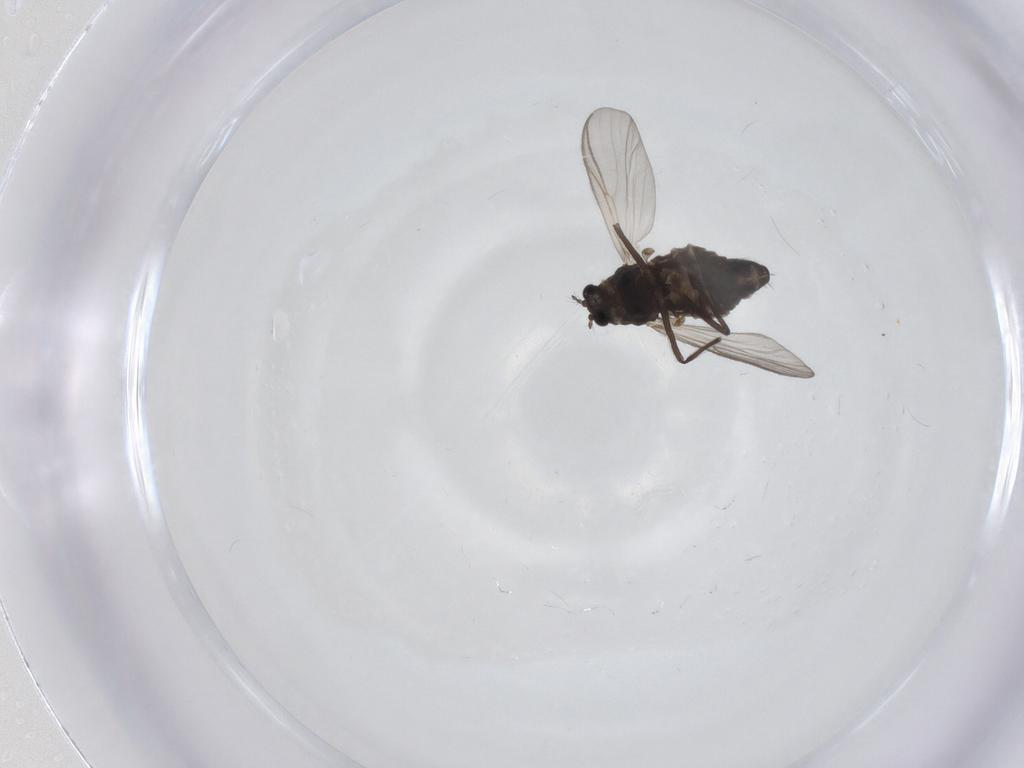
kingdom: Animalia
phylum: Arthropoda
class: Insecta
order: Diptera
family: Chironomidae
